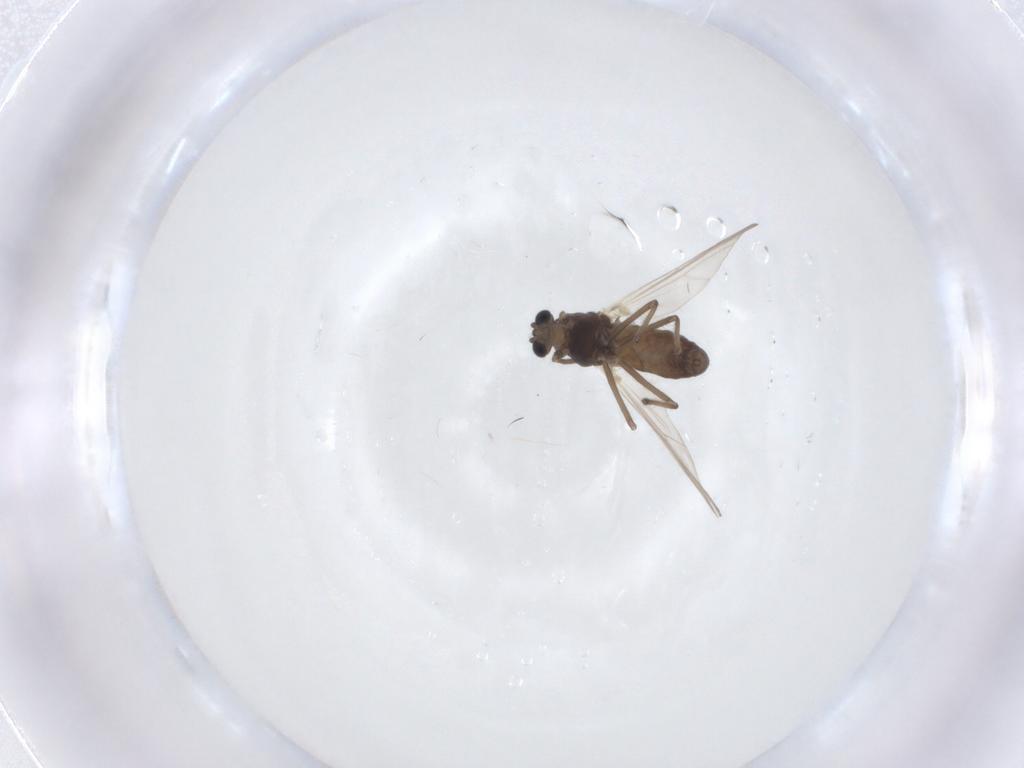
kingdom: Animalia
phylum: Arthropoda
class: Insecta
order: Diptera
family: Chironomidae
